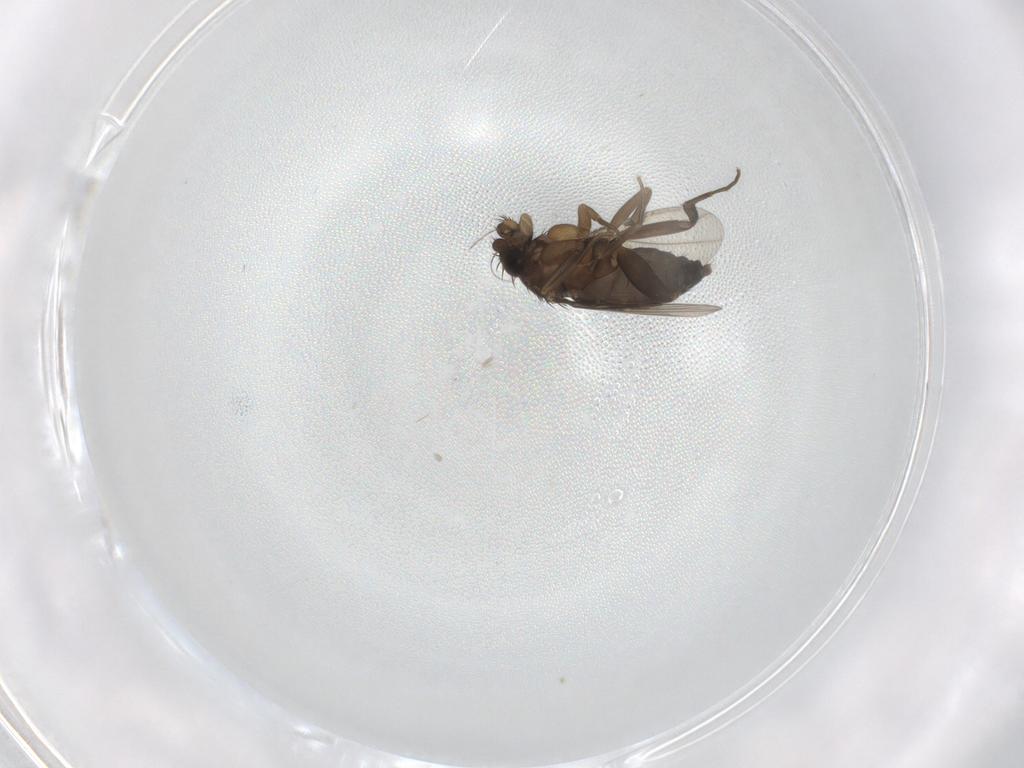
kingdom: Animalia
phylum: Arthropoda
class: Insecta
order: Diptera
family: Phoridae
